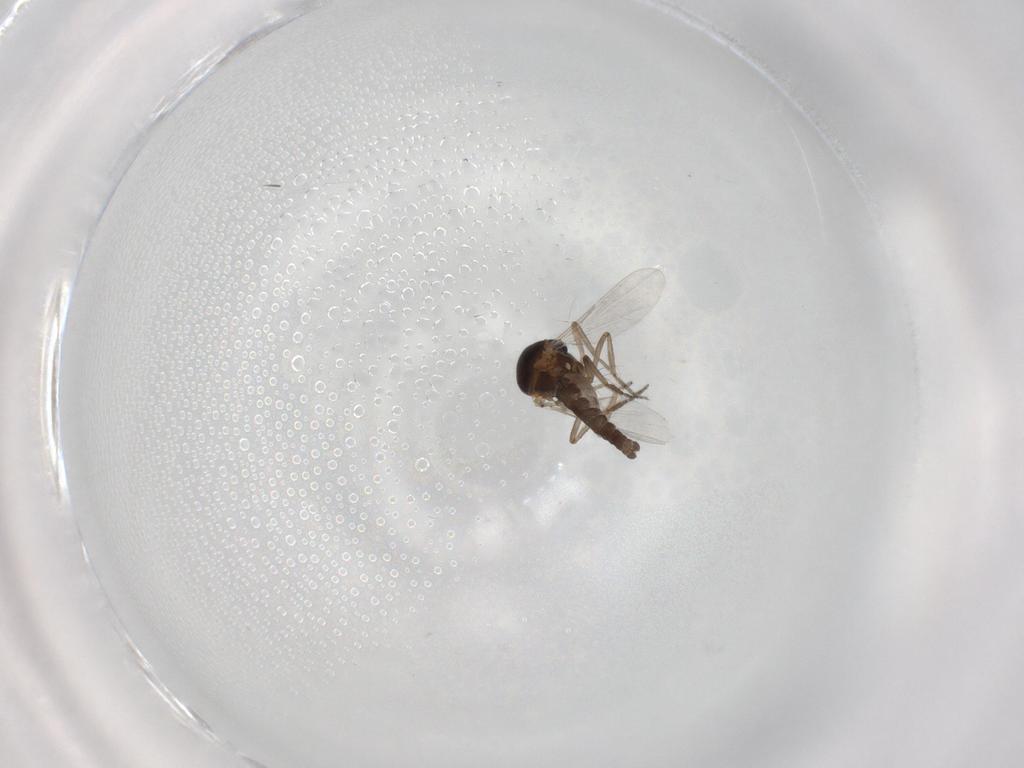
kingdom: Animalia
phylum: Arthropoda
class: Insecta
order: Diptera
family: Ceratopogonidae
